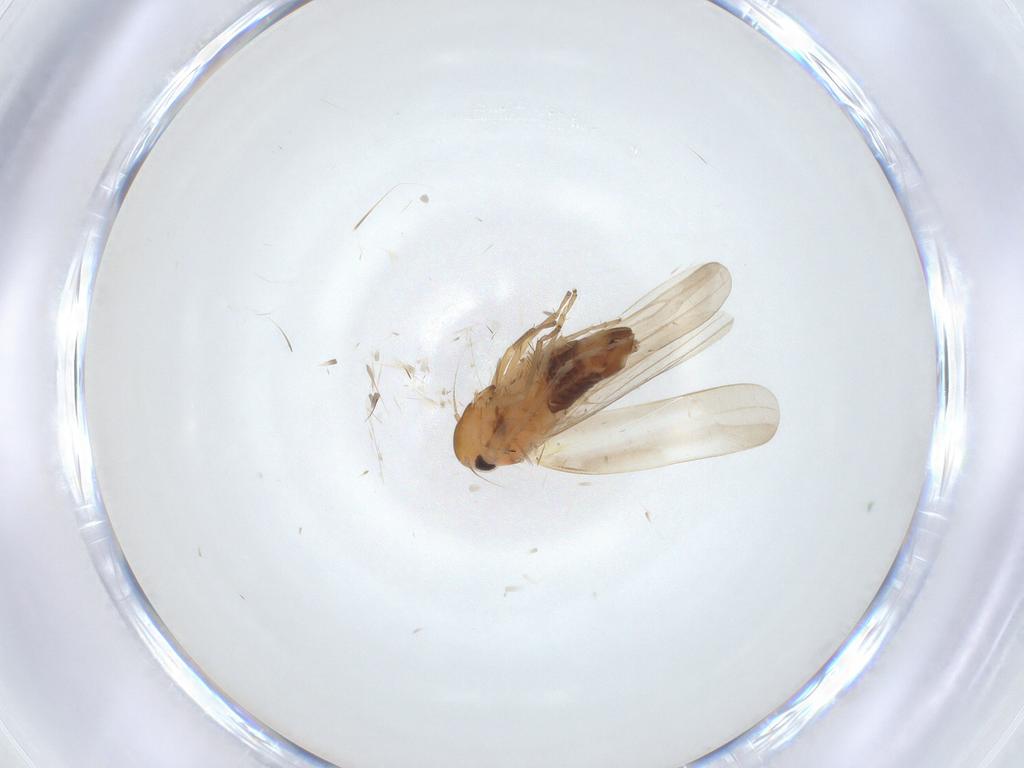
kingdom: Animalia
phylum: Arthropoda
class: Insecta
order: Hemiptera
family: Cicadellidae
